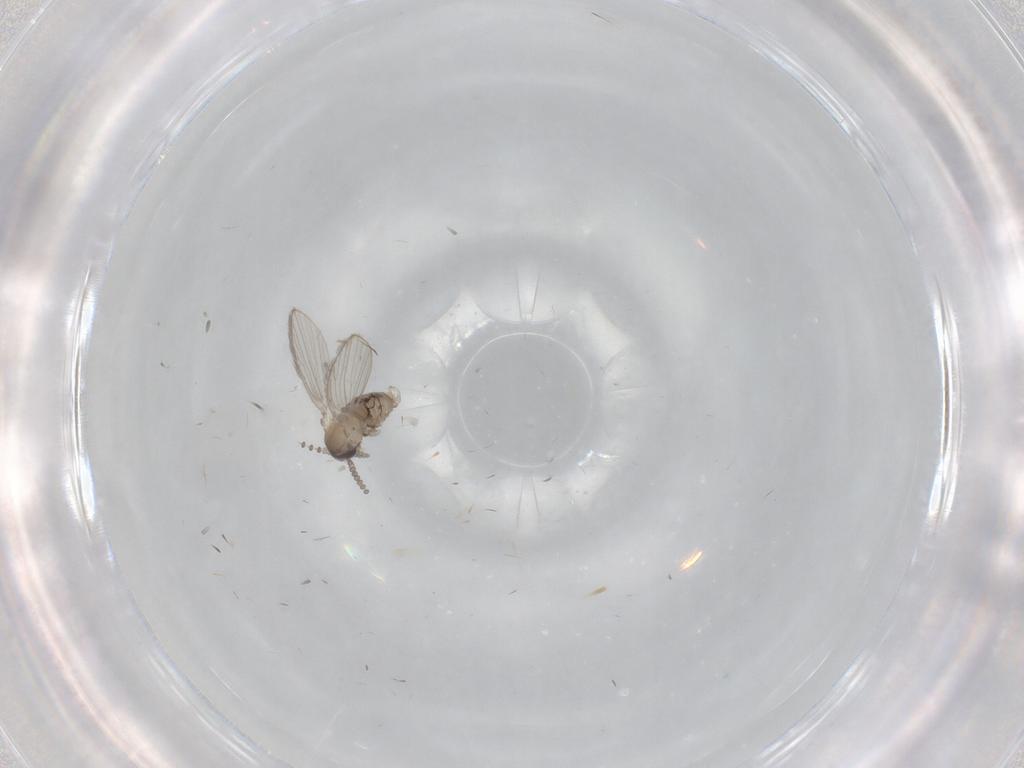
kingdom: Animalia
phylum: Arthropoda
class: Insecta
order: Diptera
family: Psychodidae
